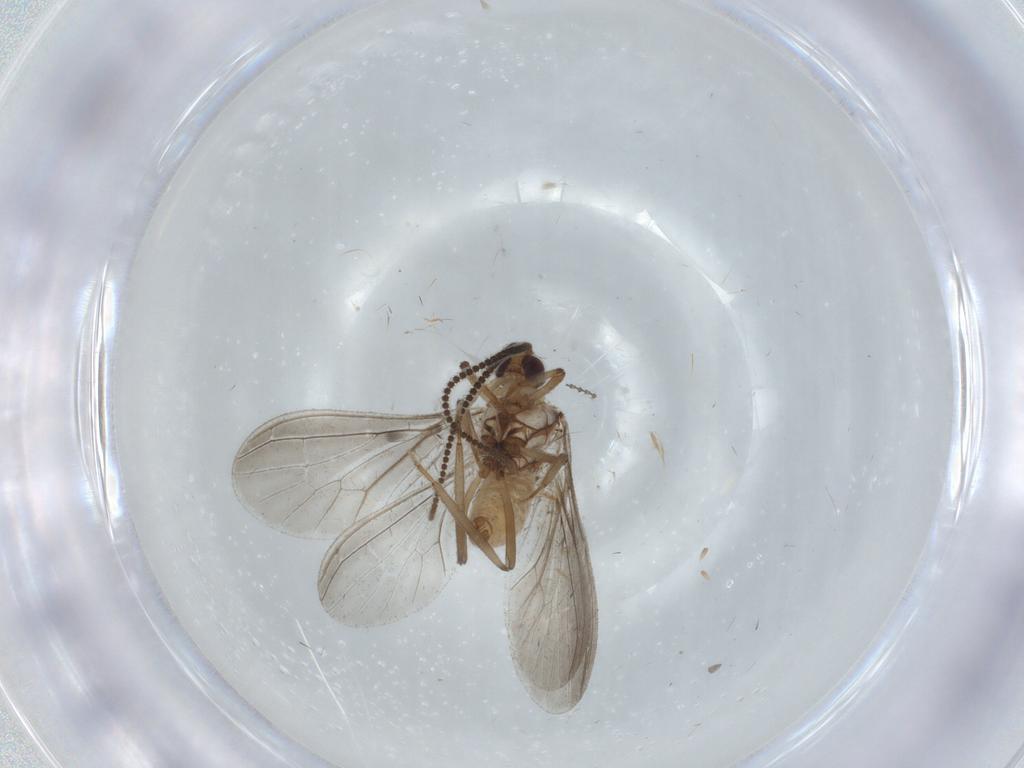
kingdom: Animalia
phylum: Arthropoda
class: Insecta
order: Neuroptera
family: Coniopterygidae
